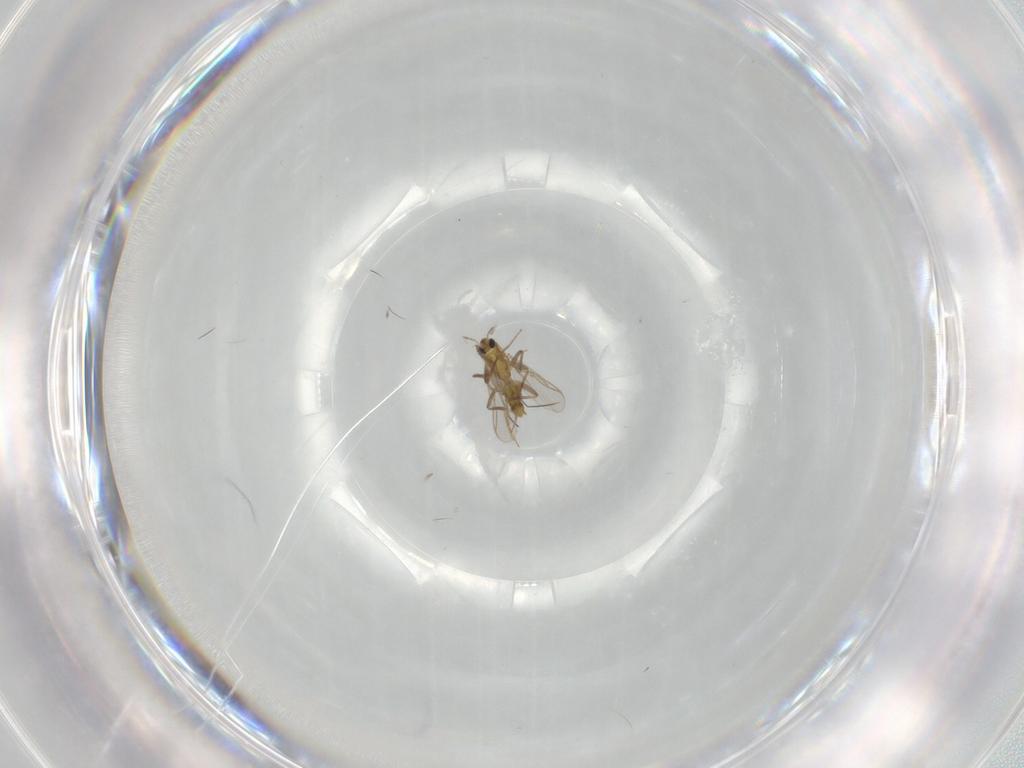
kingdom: Animalia
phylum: Arthropoda
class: Insecta
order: Diptera
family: Chironomidae
